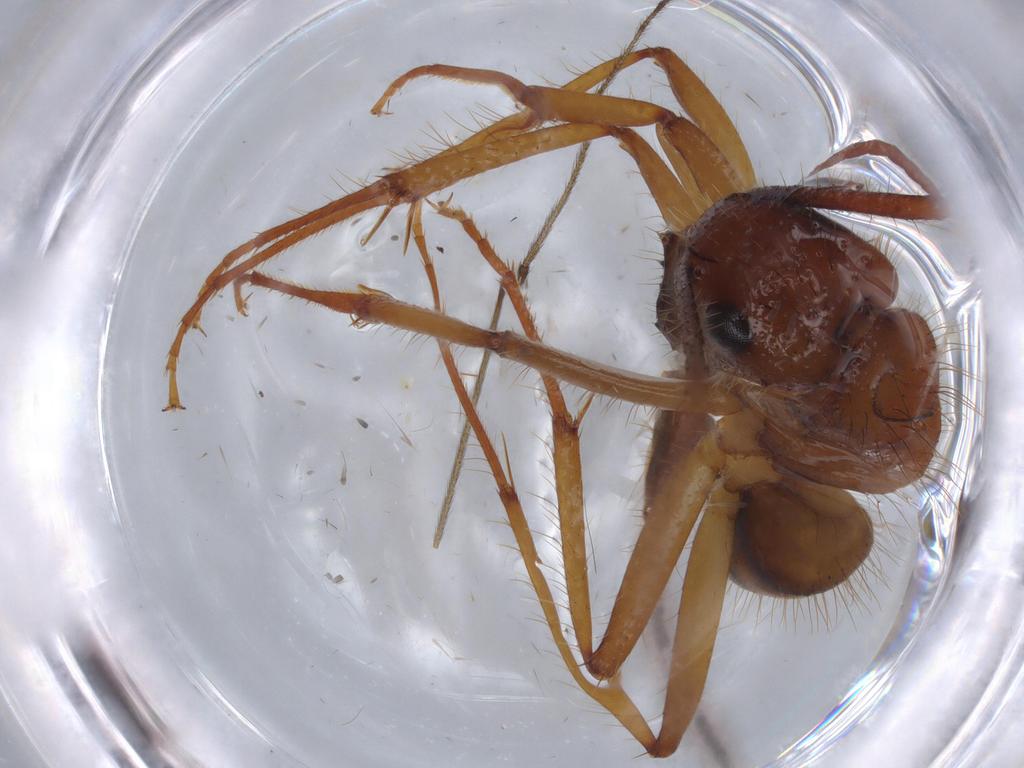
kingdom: Animalia
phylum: Arthropoda
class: Insecta
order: Hymenoptera
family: Formicidae
